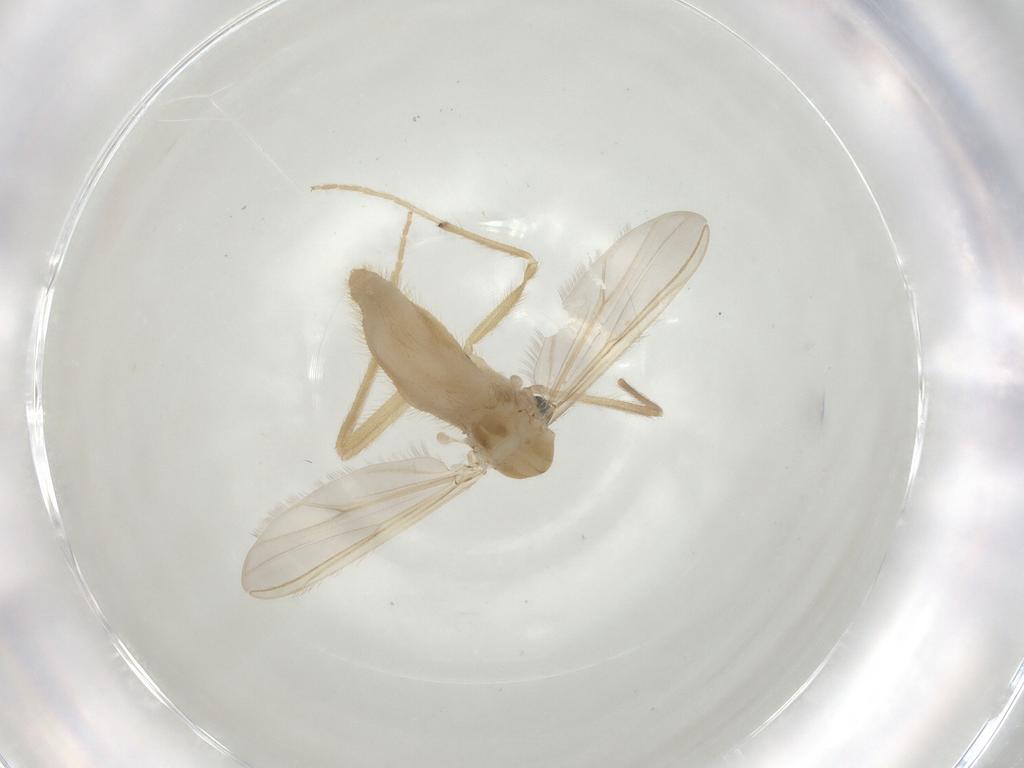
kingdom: Animalia
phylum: Arthropoda
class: Insecta
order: Diptera
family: Chironomidae
